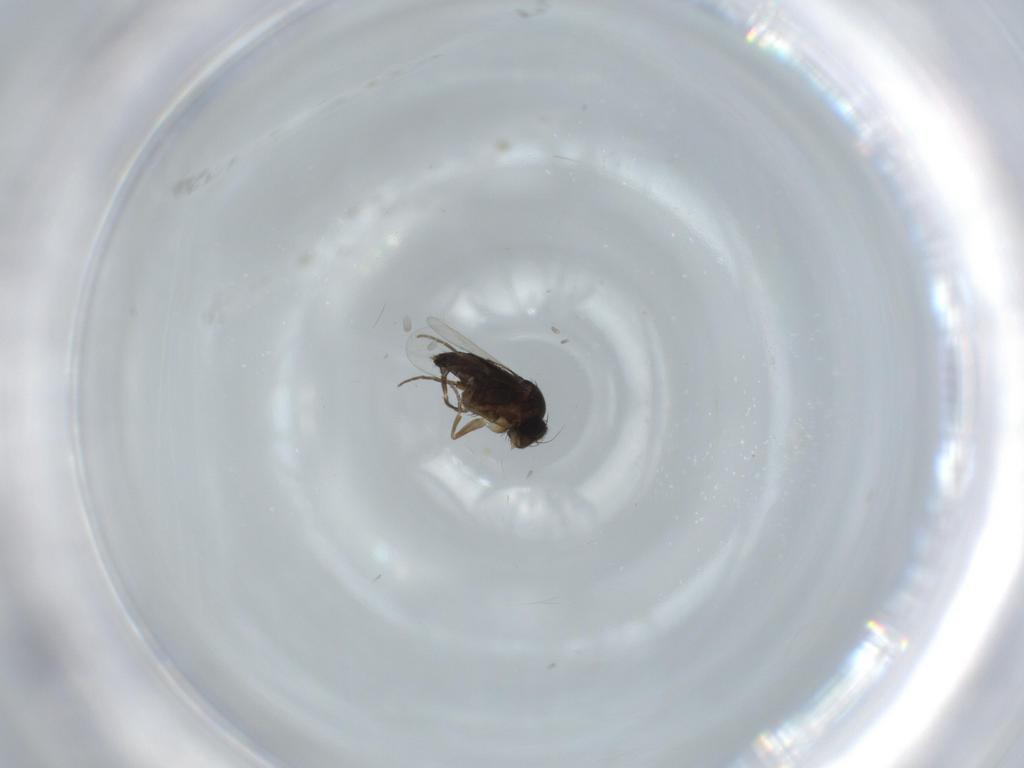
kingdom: Animalia
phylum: Arthropoda
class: Insecta
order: Diptera
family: Phoridae
